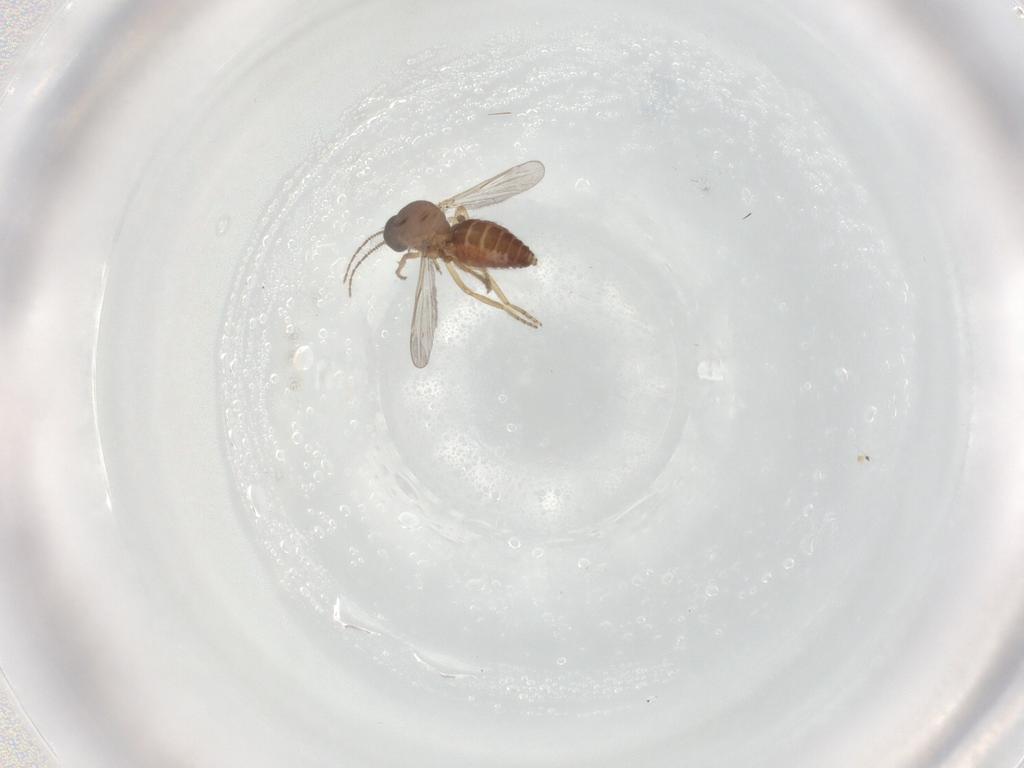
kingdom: Animalia
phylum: Arthropoda
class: Insecta
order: Diptera
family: Ceratopogonidae
